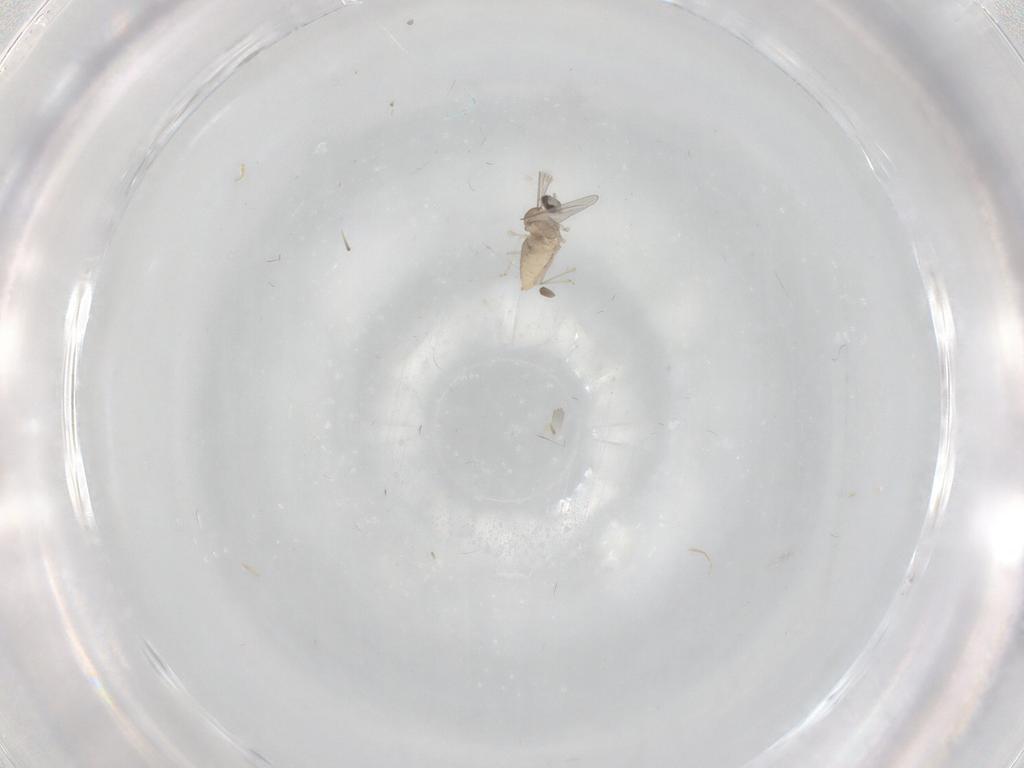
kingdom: Animalia
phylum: Arthropoda
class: Insecta
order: Diptera
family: Cecidomyiidae
